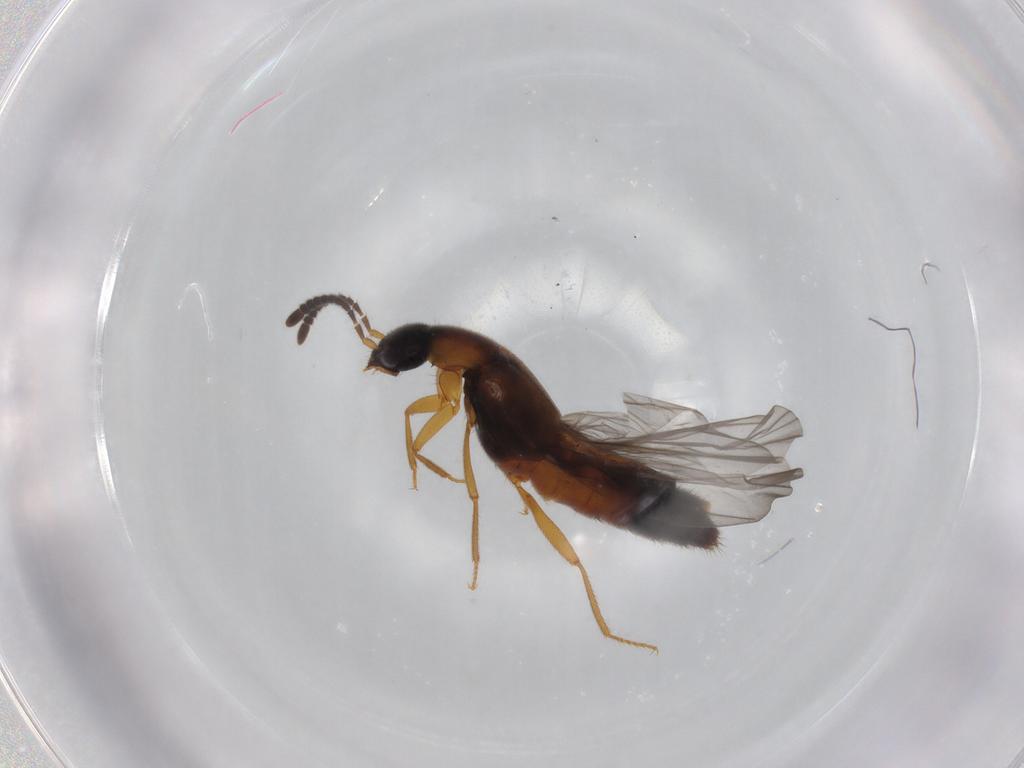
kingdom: Animalia
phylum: Arthropoda
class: Insecta
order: Coleoptera
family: Staphylinidae
